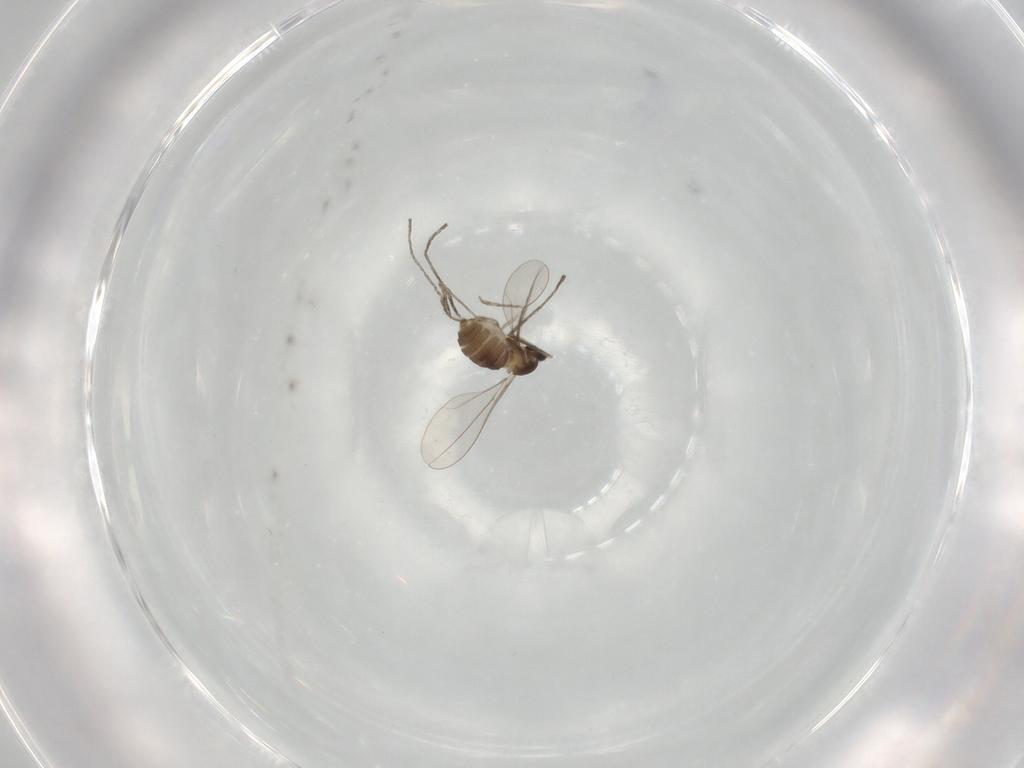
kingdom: Animalia
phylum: Arthropoda
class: Insecta
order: Diptera
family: Cecidomyiidae
